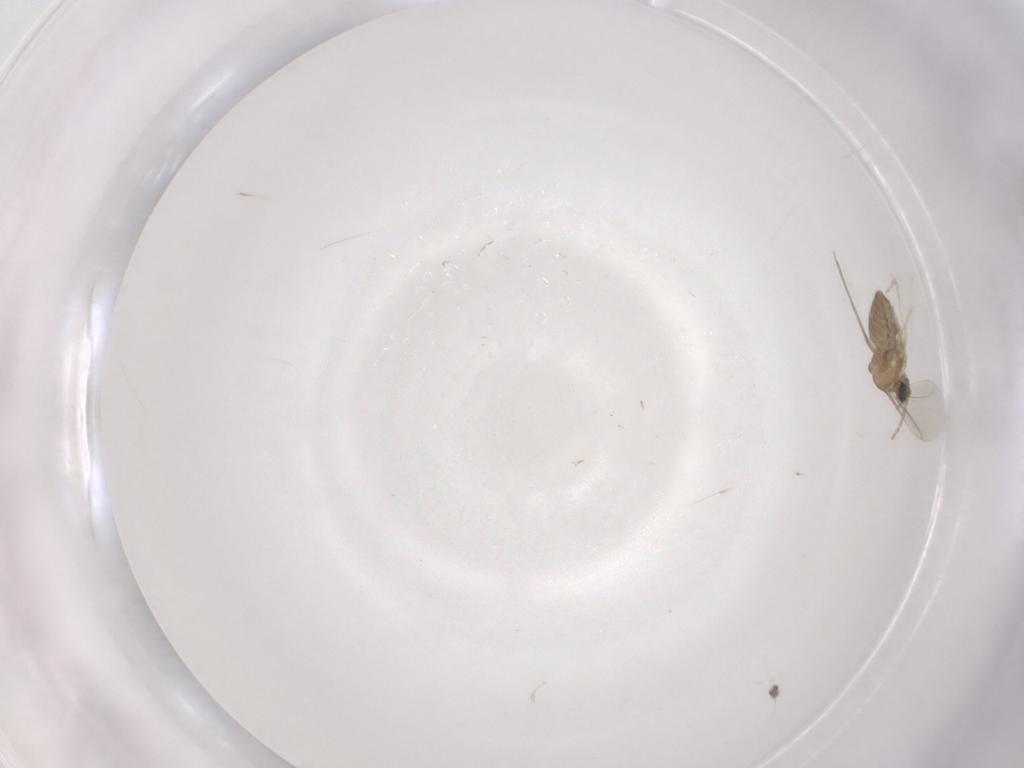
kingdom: Animalia
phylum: Arthropoda
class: Insecta
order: Diptera
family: Cecidomyiidae
